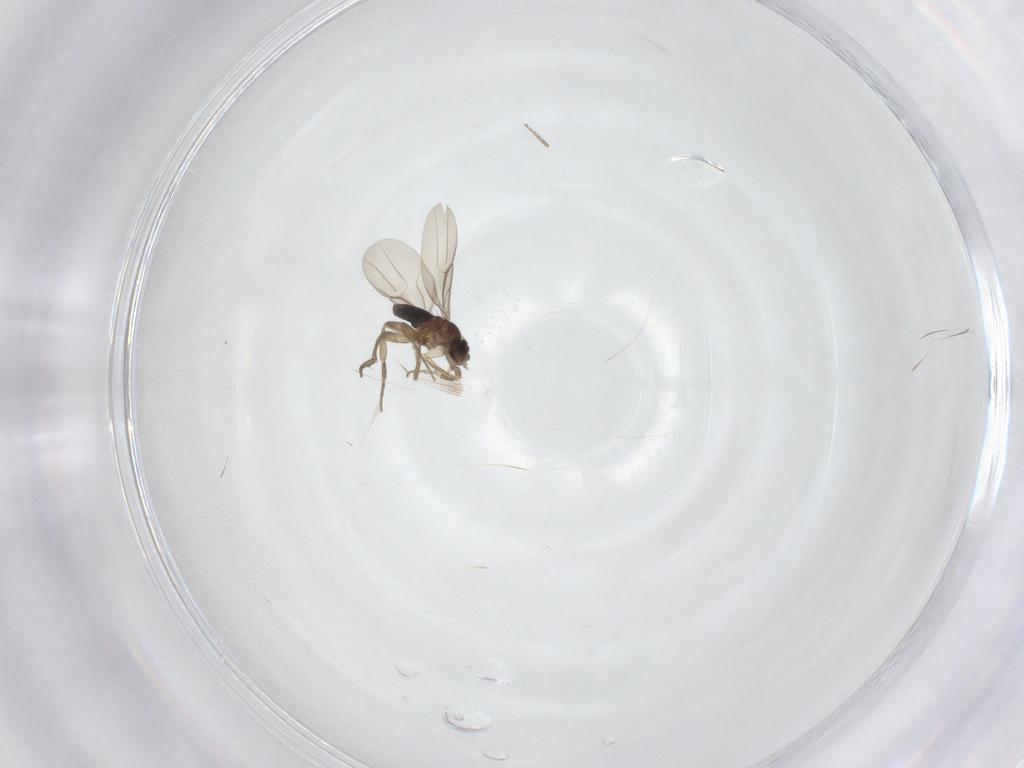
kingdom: Animalia
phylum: Arthropoda
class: Insecta
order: Diptera
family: Phoridae
